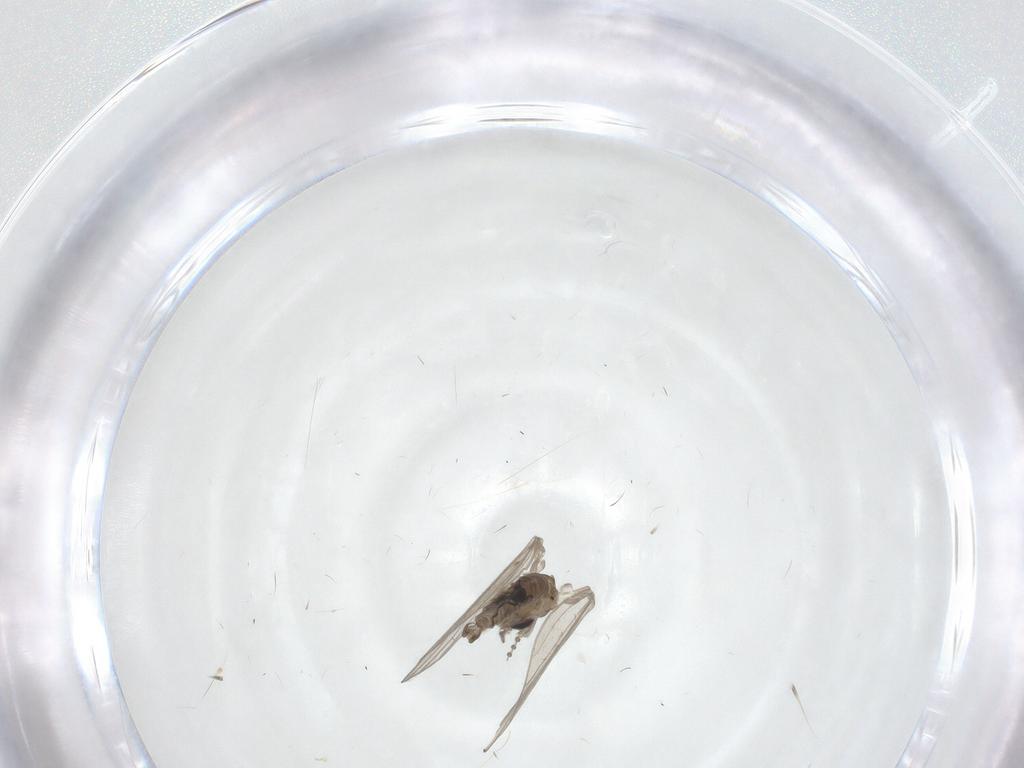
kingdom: Animalia
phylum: Arthropoda
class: Insecta
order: Diptera
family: Psychodidae
